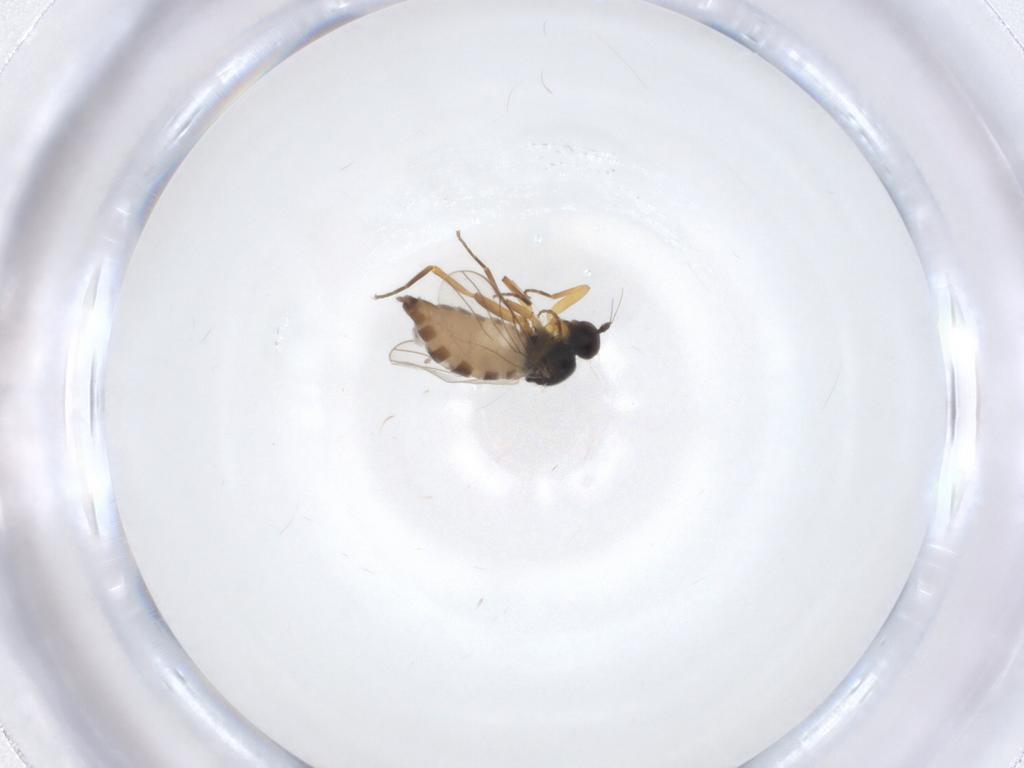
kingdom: Animalia
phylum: Arthropoda
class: Insecta
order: Diptera
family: Hybotidae
